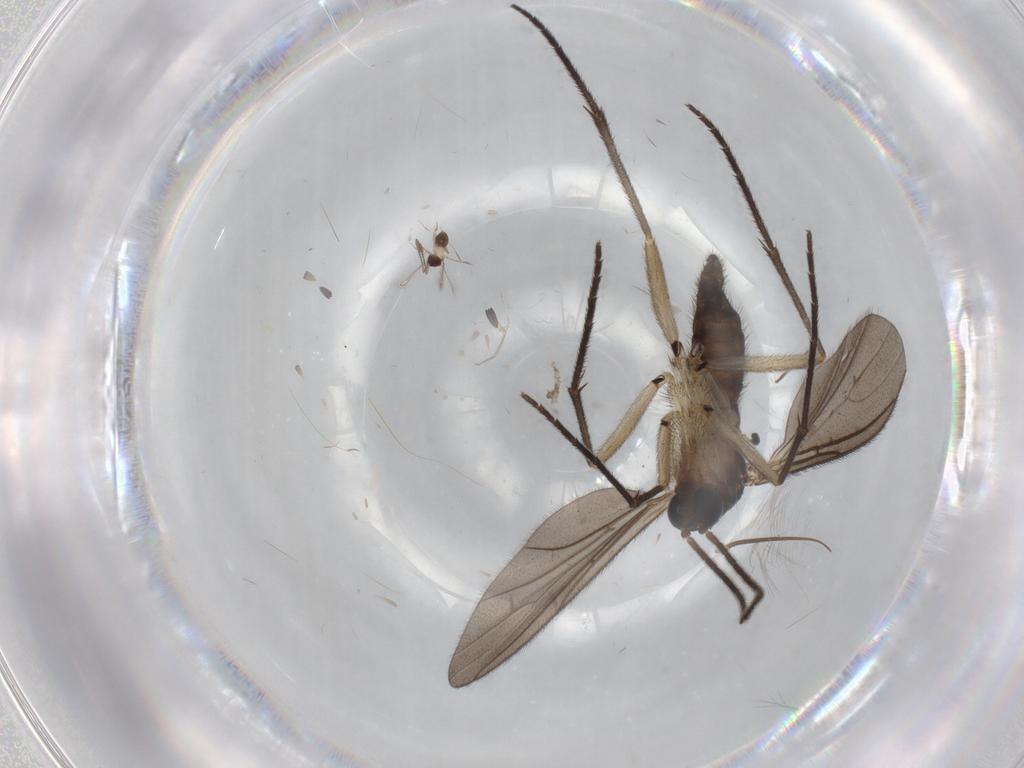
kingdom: Animalia
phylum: Arthropoda
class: Insecta
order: Diptera
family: Sciaridae
